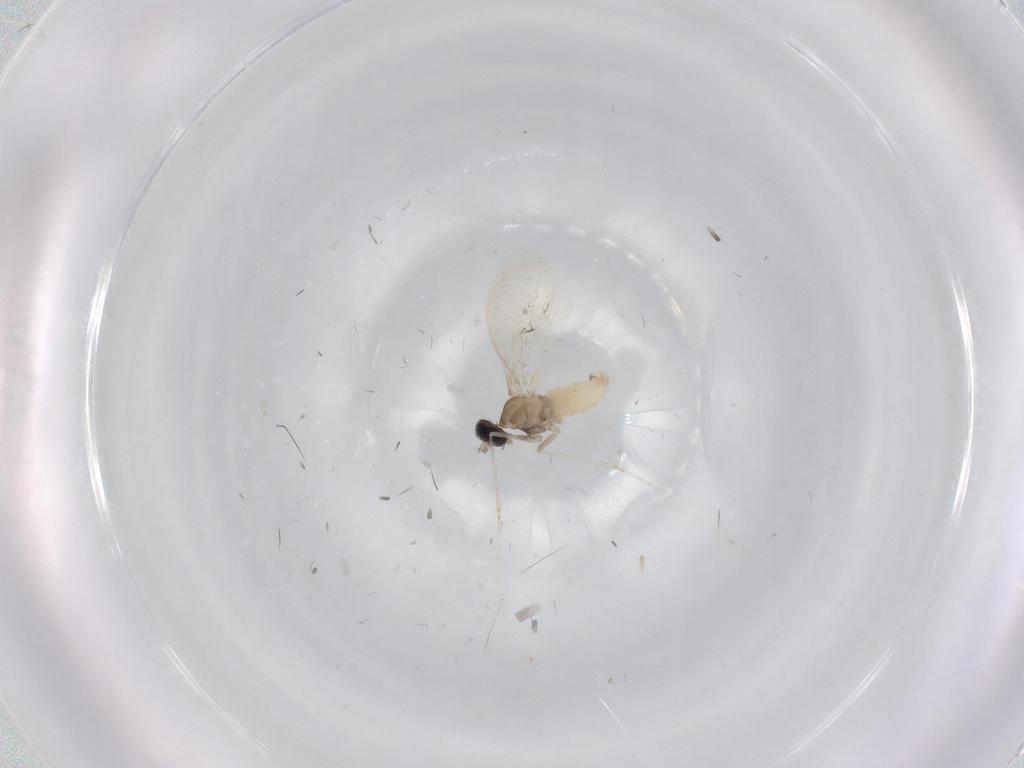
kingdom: Animalia
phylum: Arthropoda
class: Insecta
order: Diptera
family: Cecidomyiidae
